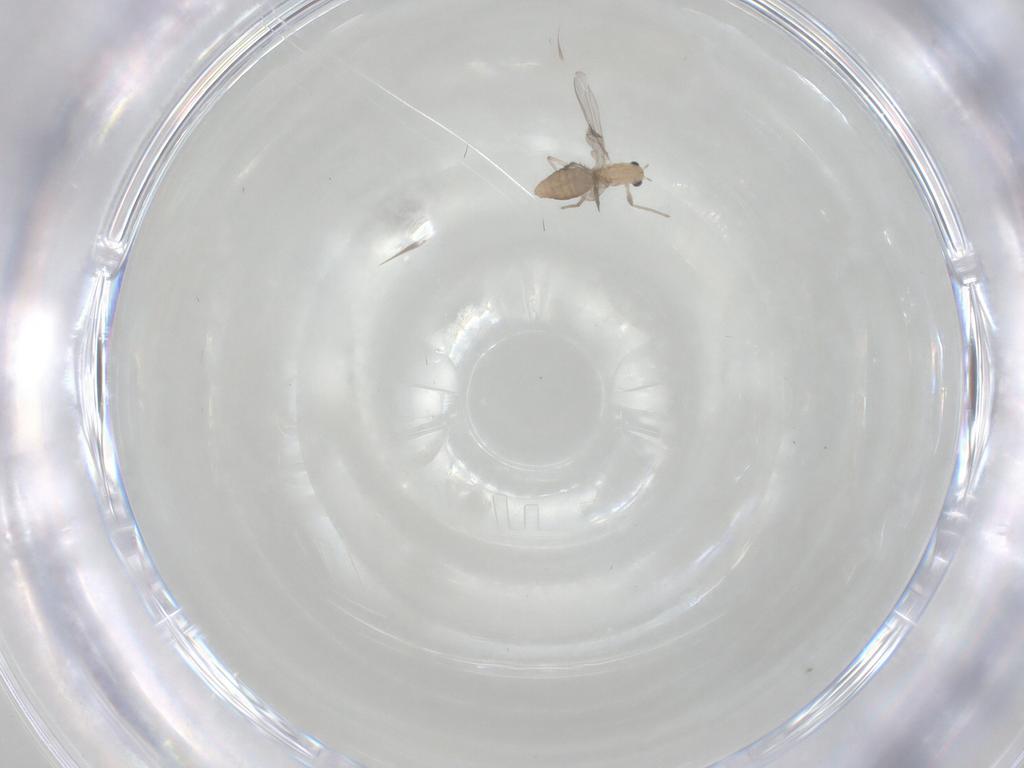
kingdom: Animalia
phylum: Arthropoda
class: Insecta
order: Diptera
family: Chironomidae
